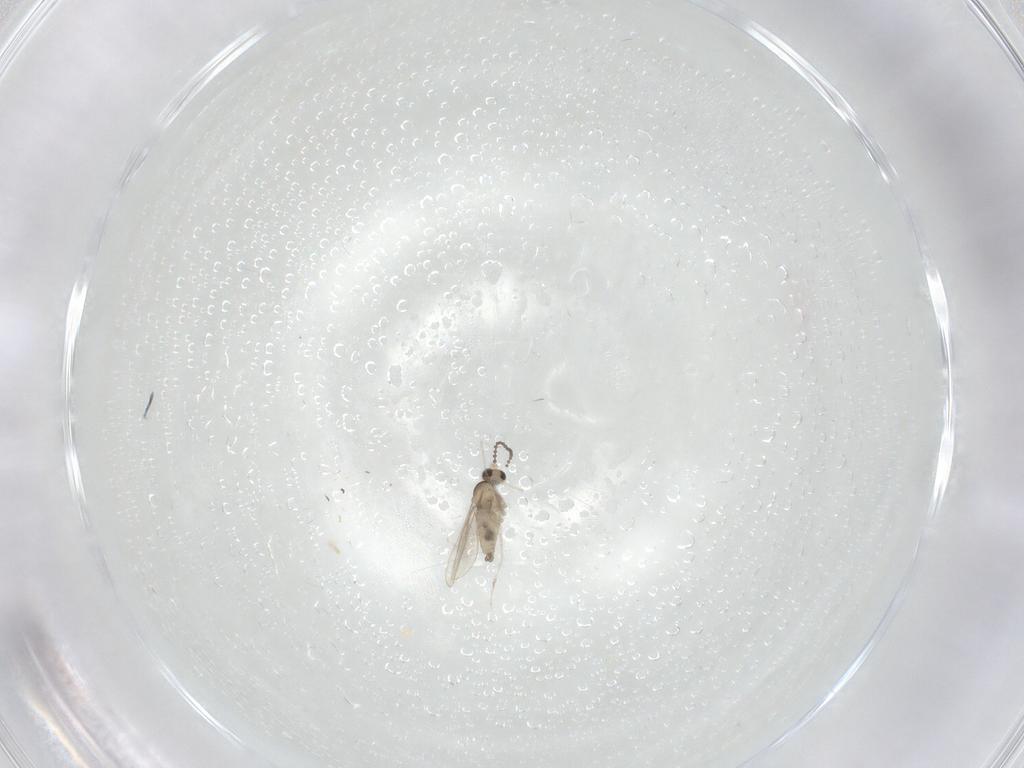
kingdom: Animalia
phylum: Arthropoda
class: Insecta
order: Diptera
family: Cecidomyiidae
